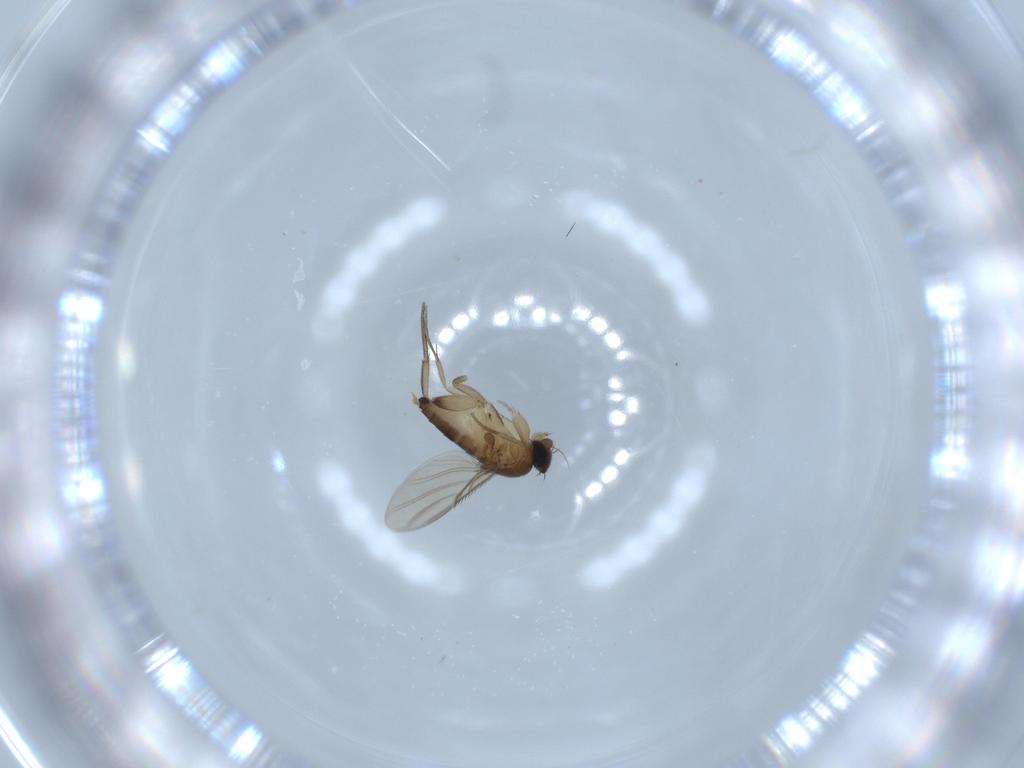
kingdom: Animalia
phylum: Arthropoda
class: Insecta
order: Diptera
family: Phoridae
